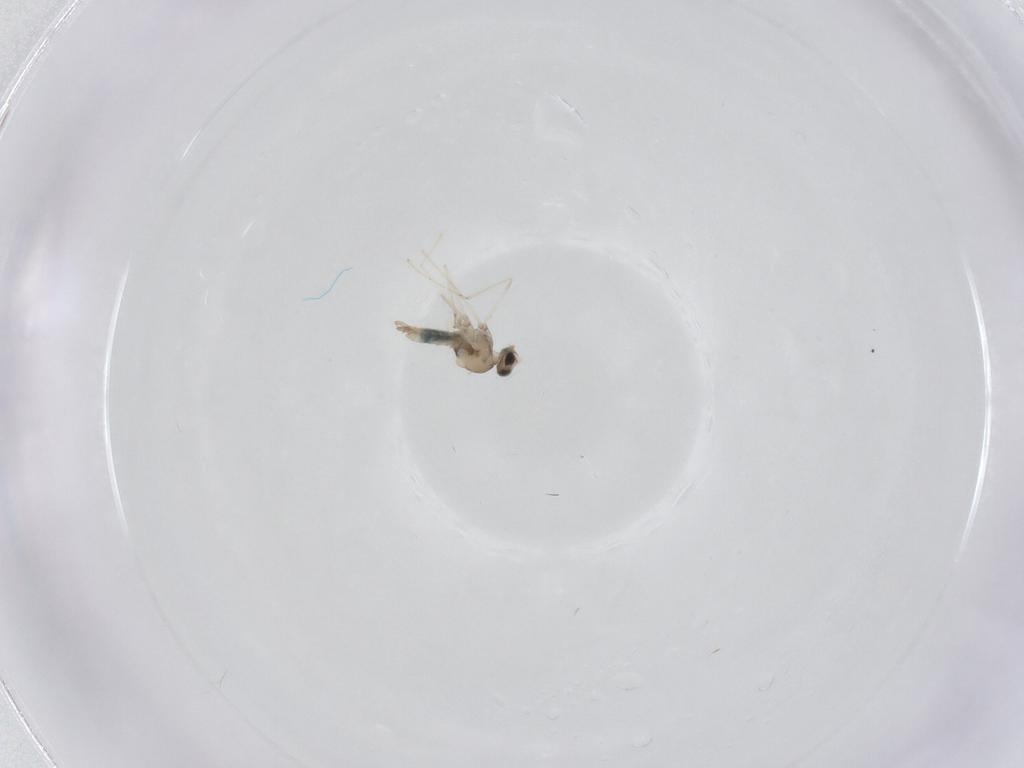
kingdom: Animalia
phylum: Arthropoda
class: Insecta
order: Diptera
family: Cecidomyiidae
